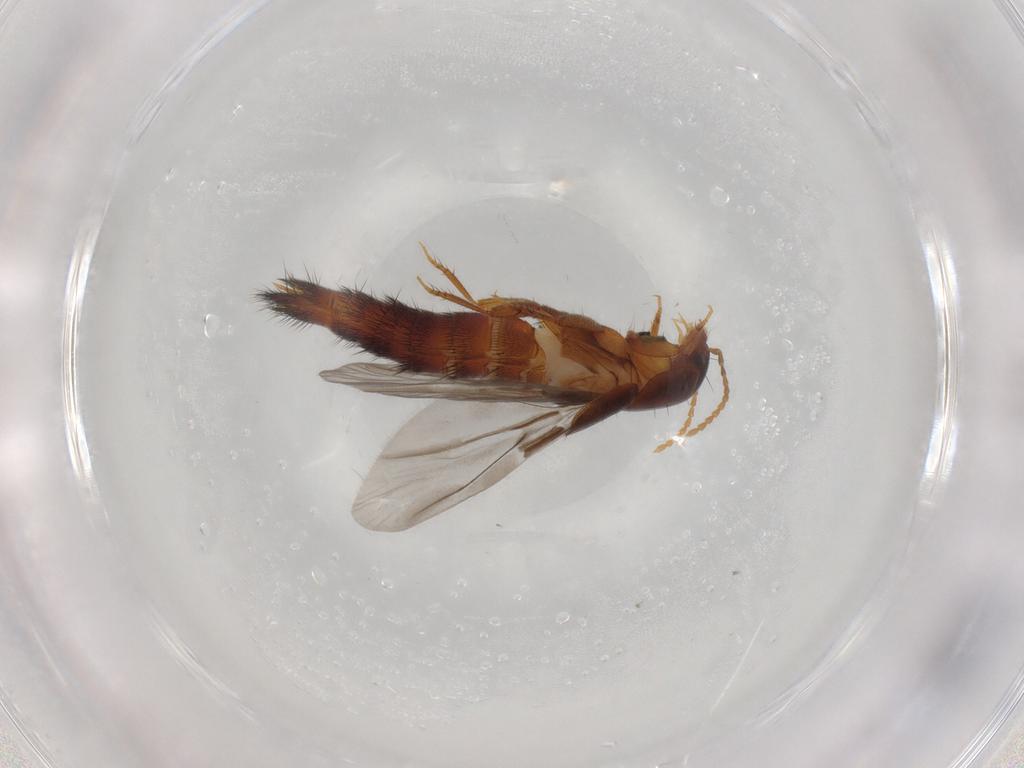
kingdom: Animalia
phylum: Arthropoda
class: Insecta
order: Coleoptera
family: Staphylinidae
